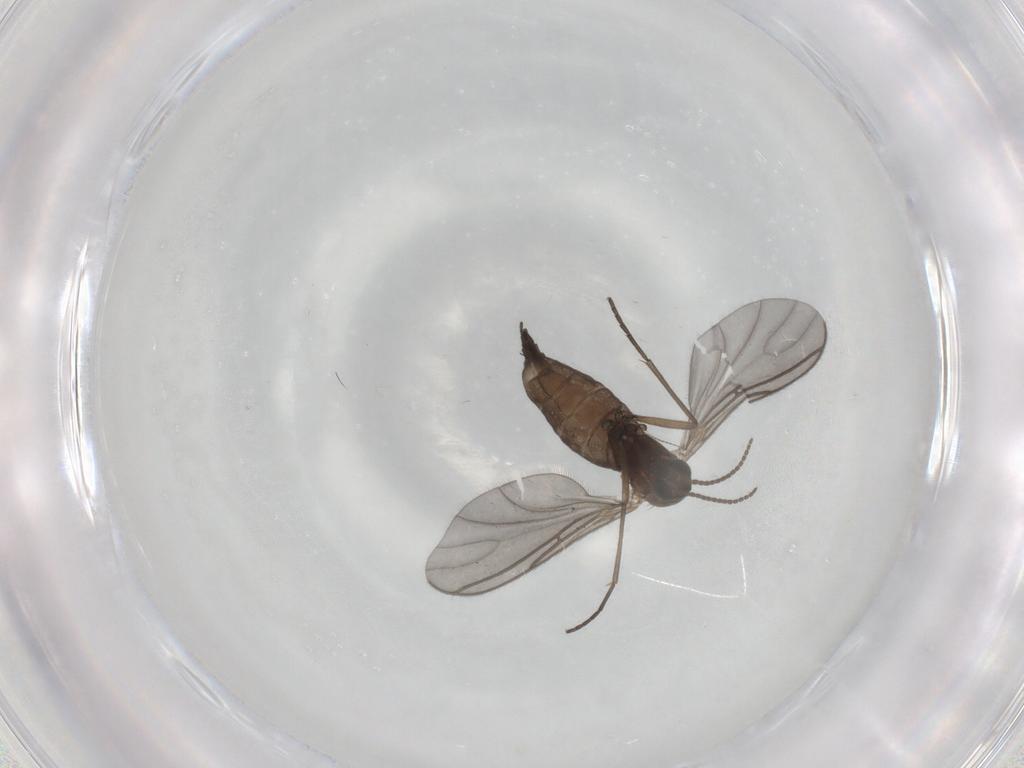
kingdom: Animalia
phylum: Arthropoda
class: Insecta
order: Diptera
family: Sciaridae
